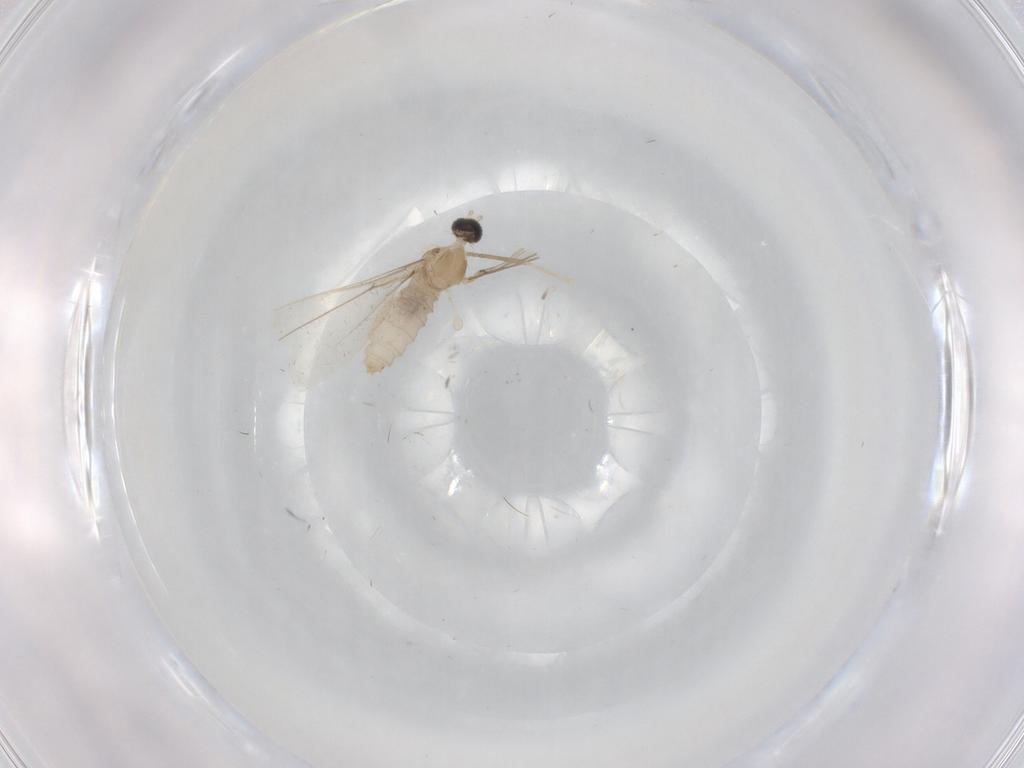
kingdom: Animalia
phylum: Arthropoda
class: Insecta
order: Diptera
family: Cecidomyiidae
